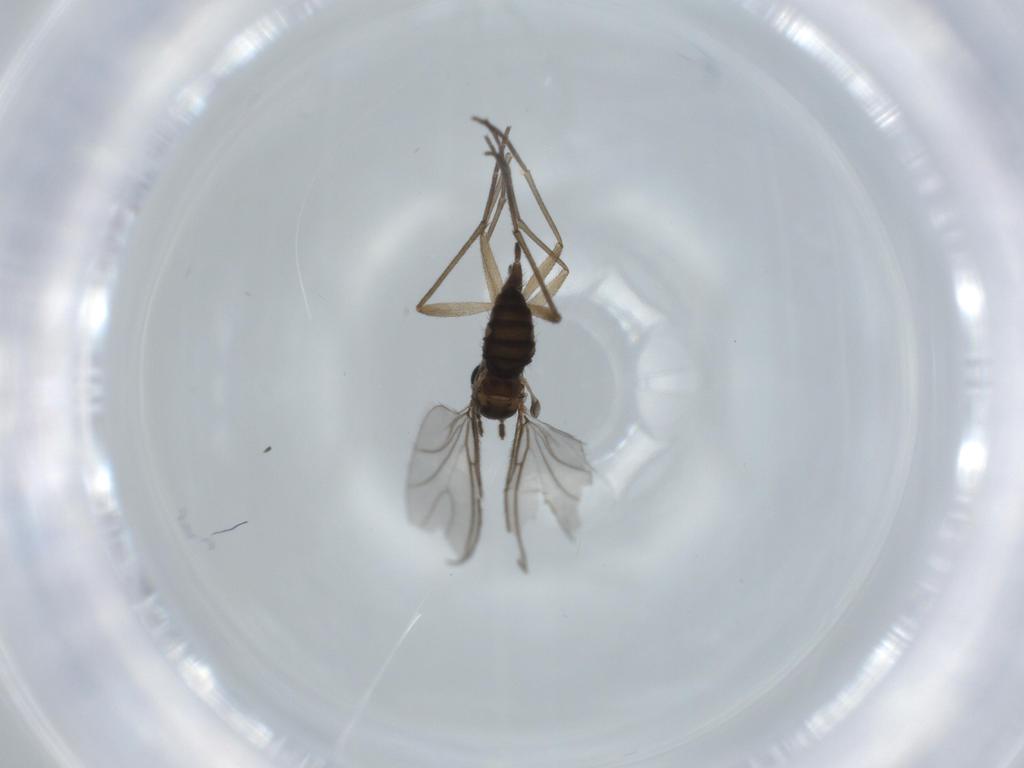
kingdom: Animalia
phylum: Arthropoda
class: Insecta
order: Diptera
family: Sciaridae
